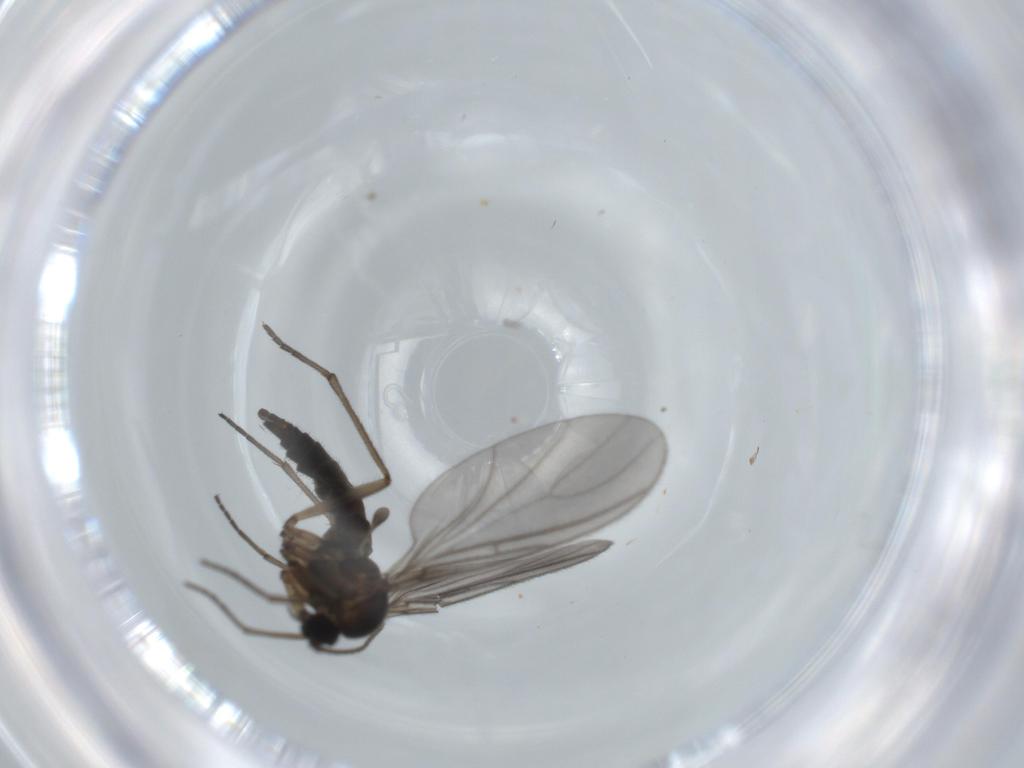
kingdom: Animalia
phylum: Arthropoda
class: Insecta
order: Diptera
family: Sciaridae
